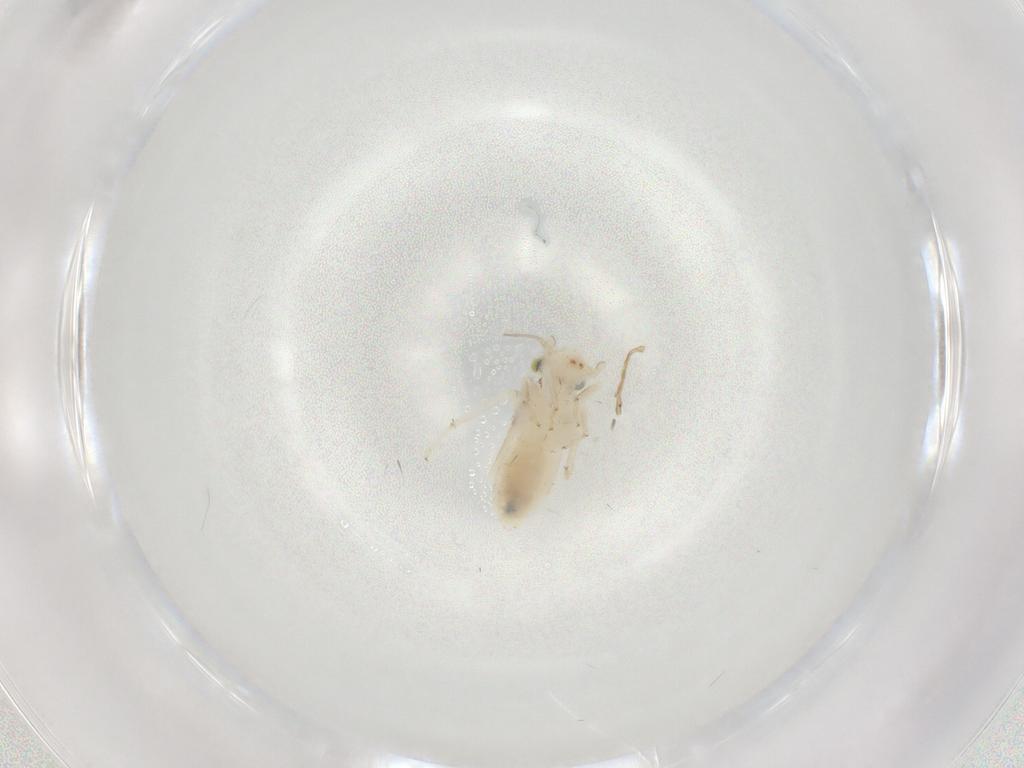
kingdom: Animalia
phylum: Arthropoda
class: Insecta
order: Psocodea
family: Lepidopsocidae
